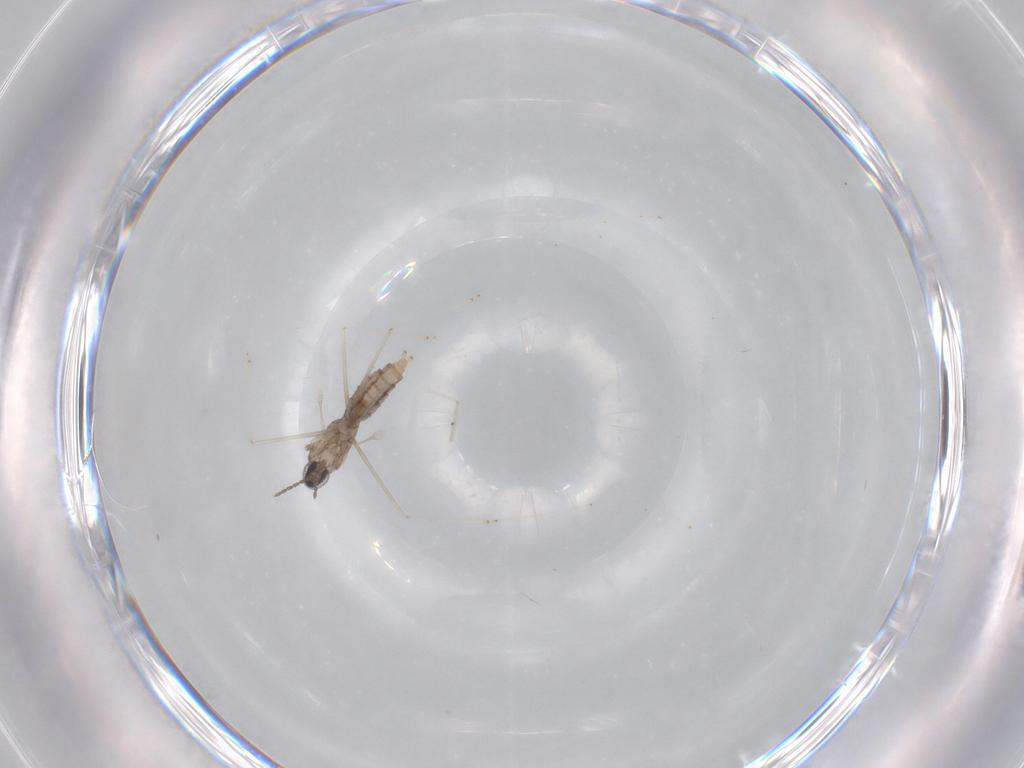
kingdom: Animalia
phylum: Arthropoda
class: Insecta
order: Diptera
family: Cecidomyiidae
